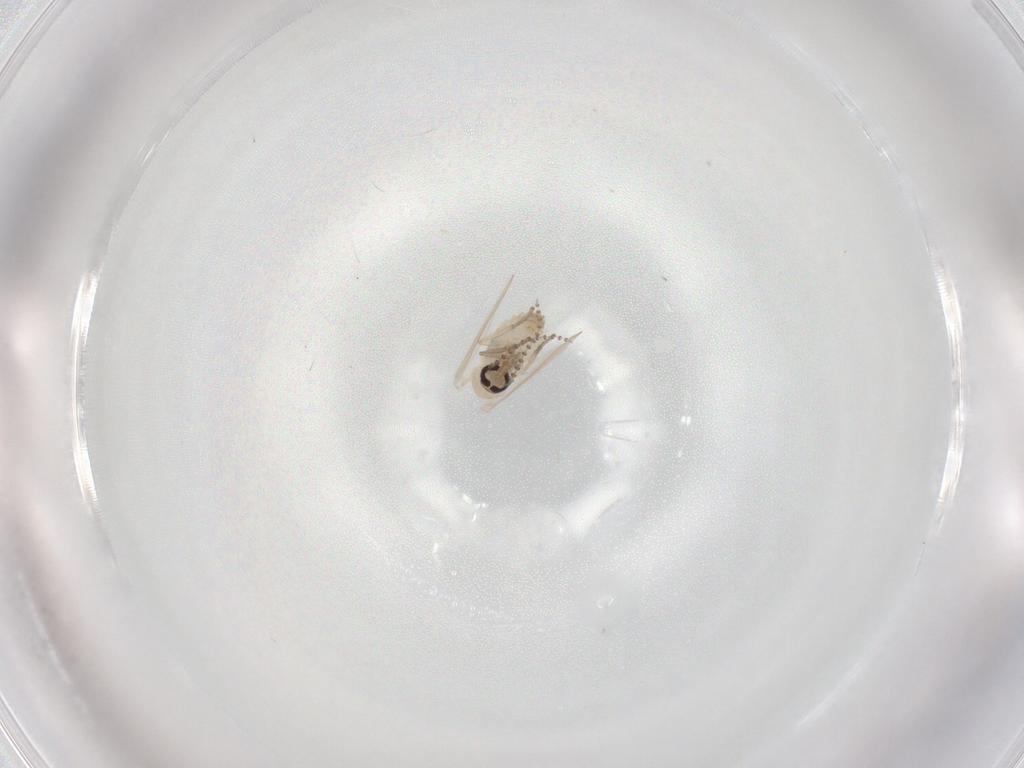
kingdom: Animalia
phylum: Arthropoda
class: Insecta
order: Diptera
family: Psychodidae
